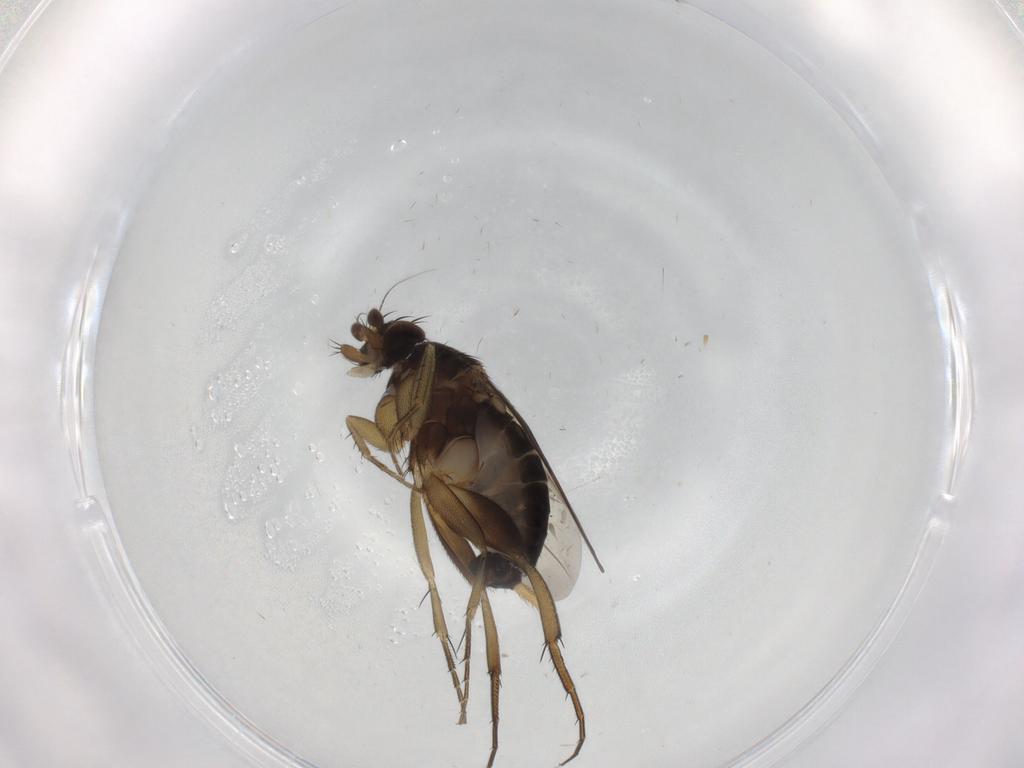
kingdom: Animalia
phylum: Arthropoda
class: Insecta
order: Diptera
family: Phoridae
